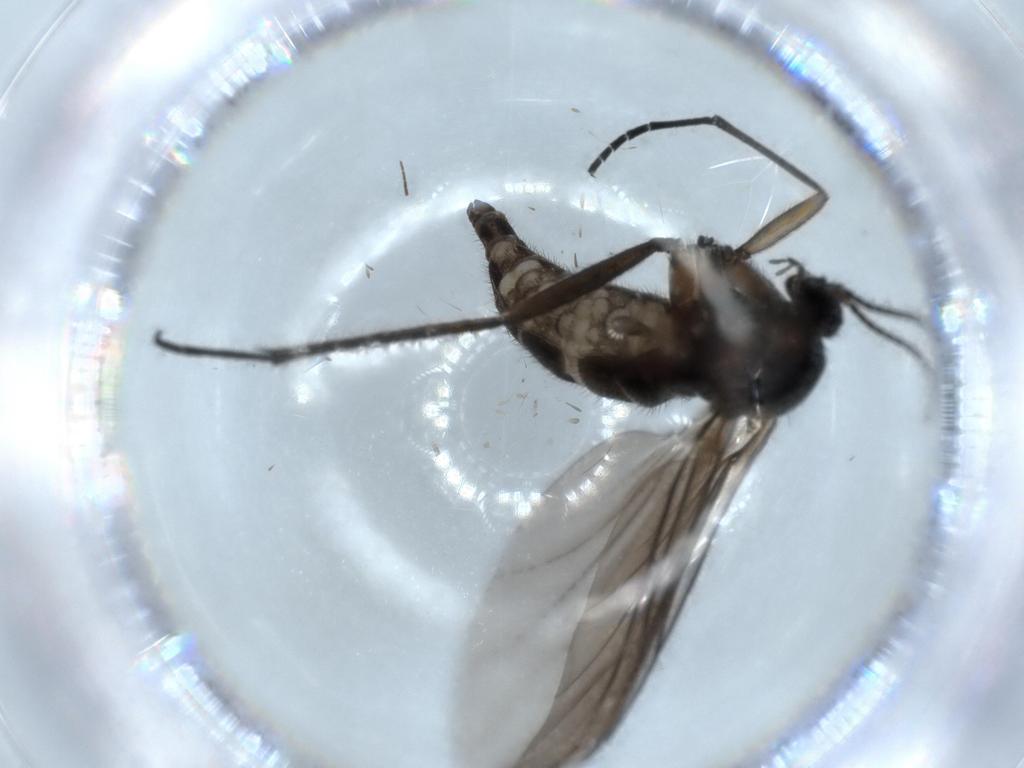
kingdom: Animalia
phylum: Arthropoda
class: Insecta
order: Diptera
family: Sciaridae
